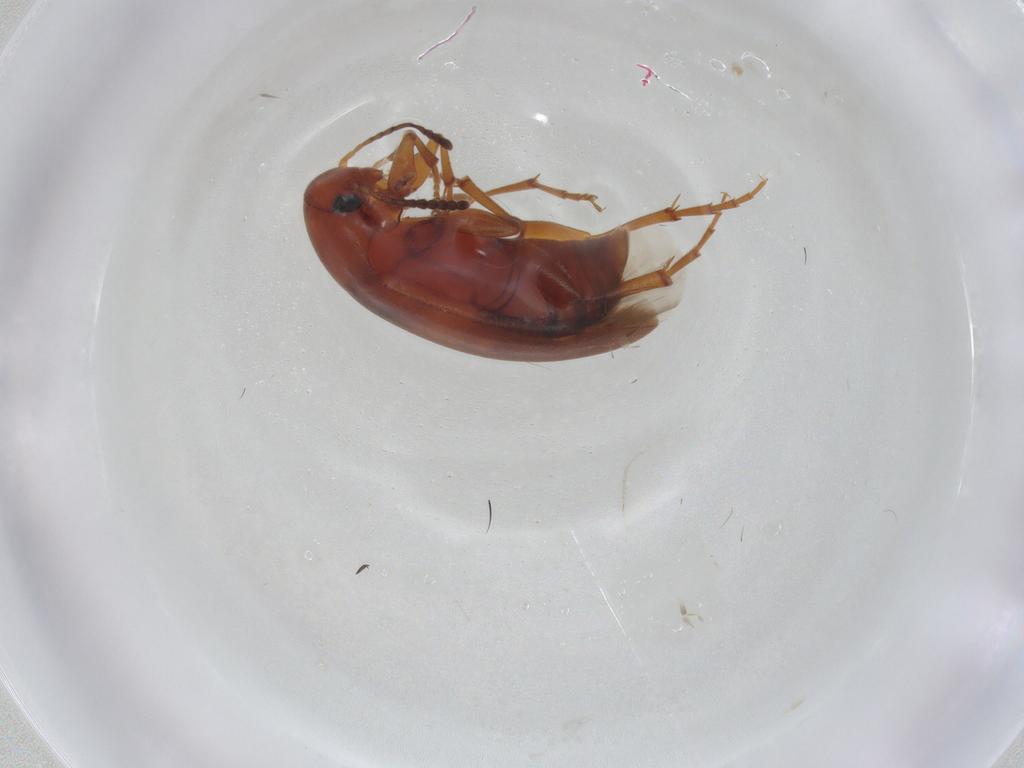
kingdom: Animalia
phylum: Arthropoda
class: Insecta
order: Coleoptera
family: Scraptiidae
